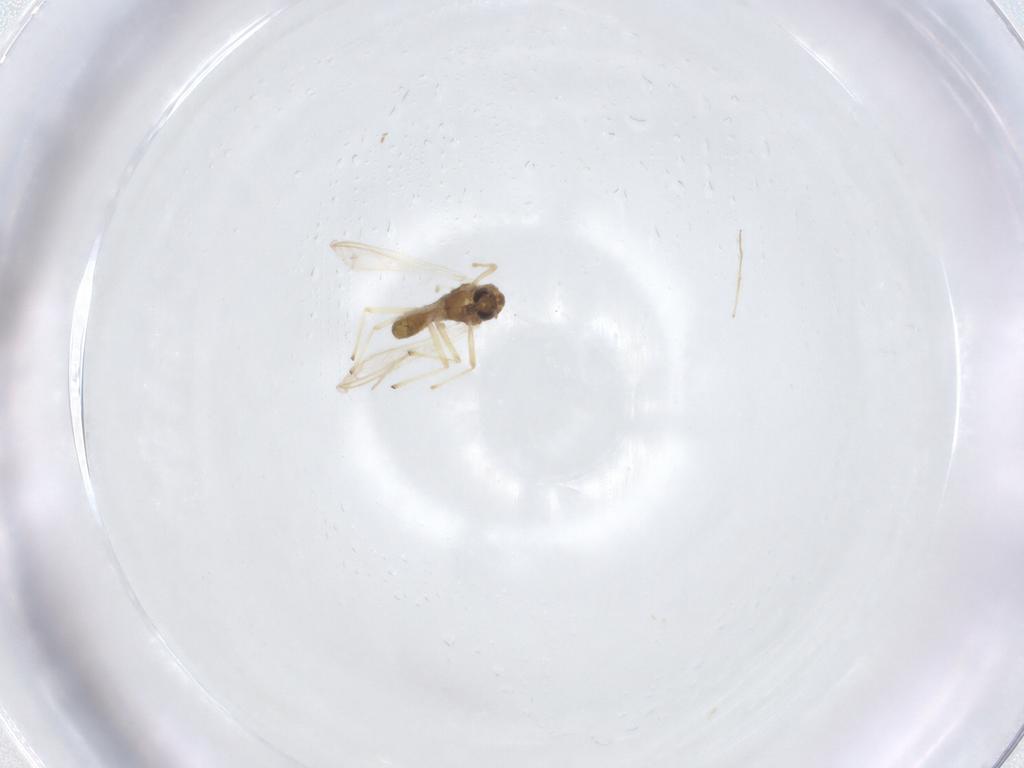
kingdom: Animalia
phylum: Arthropoda
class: Insecta
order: Diptera
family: Chironomidae
